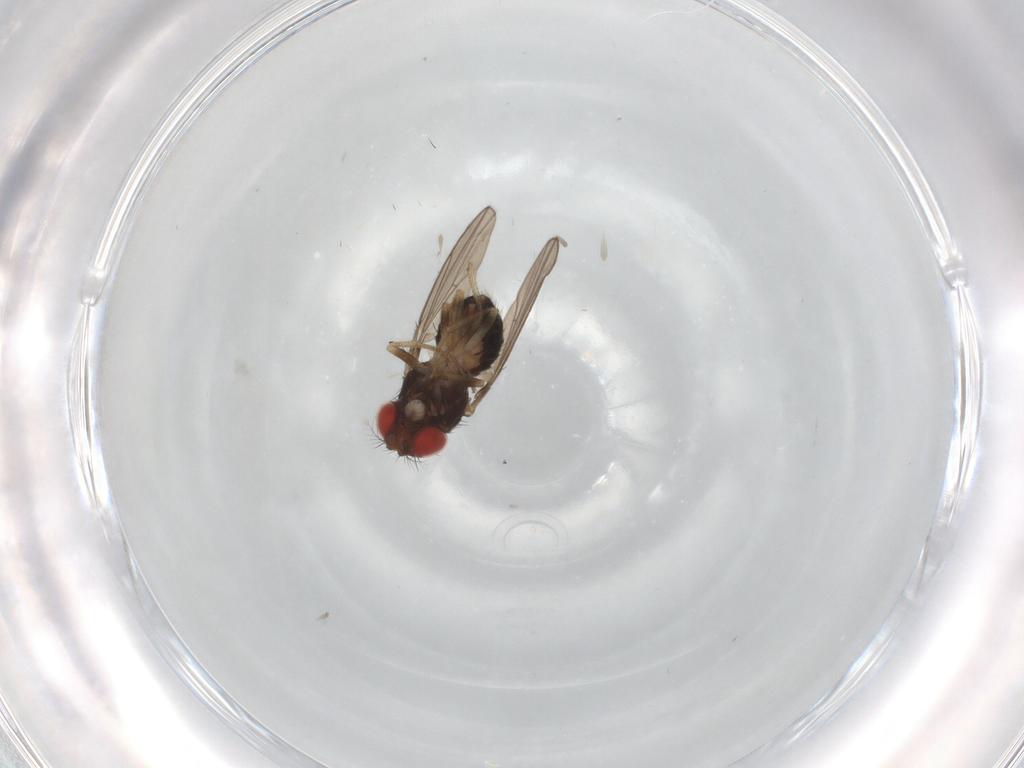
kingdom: Animalia
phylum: Arthropoda
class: Insecta
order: Diptera
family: Drosophilidae
